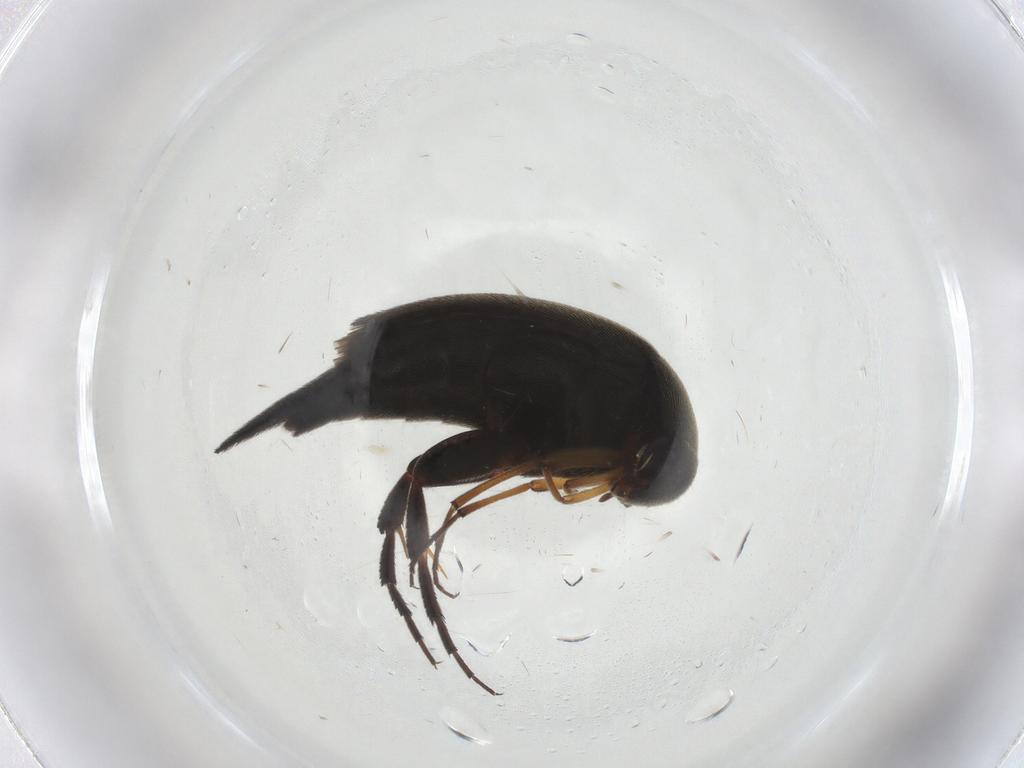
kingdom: Animalia
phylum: Arthropoda
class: Insecta
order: Coleoptera
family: Mordellidae
